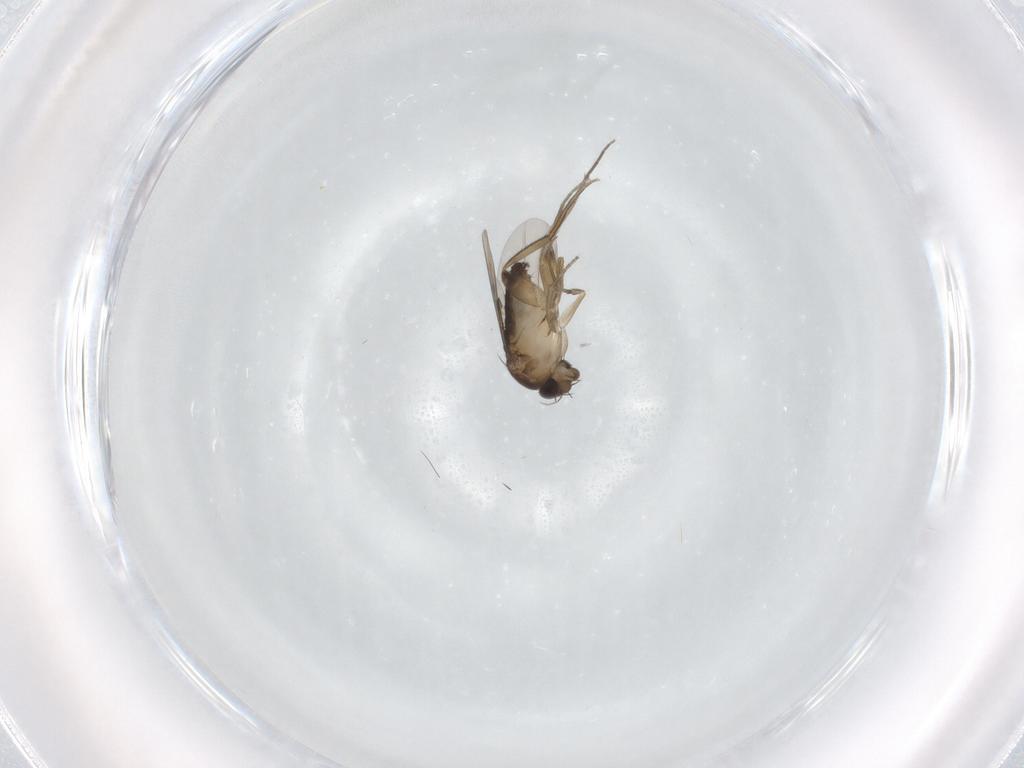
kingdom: Animalia
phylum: Arthropoda
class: Insecta
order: Diptera
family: Phoridae
